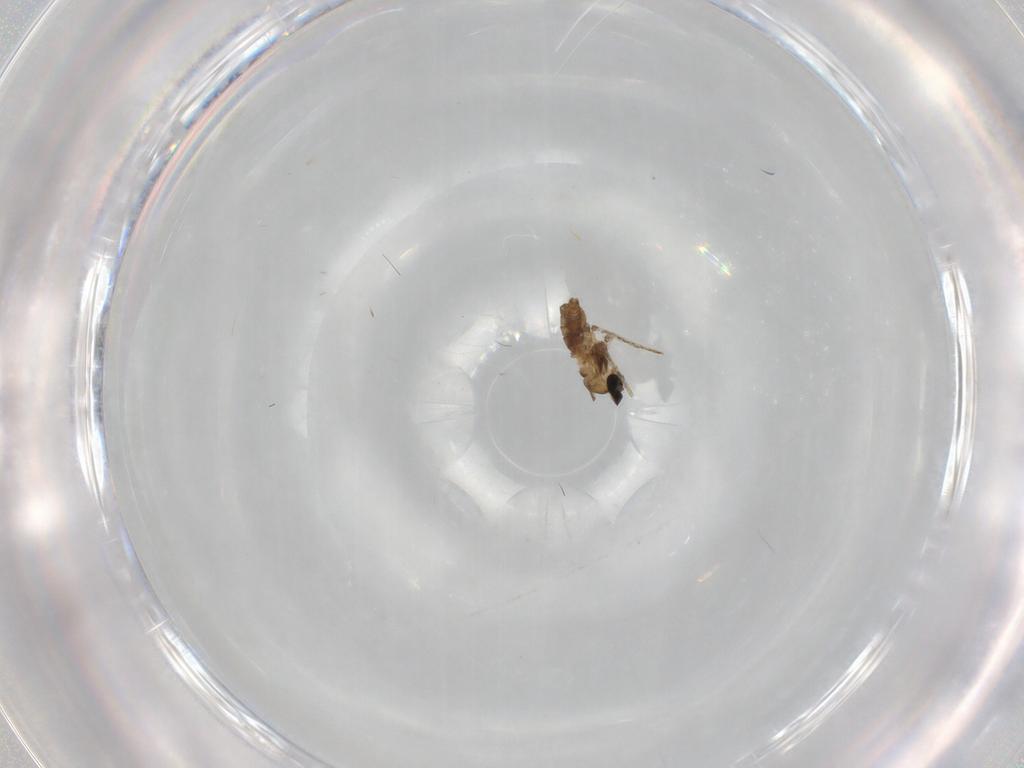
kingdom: Animalia
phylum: Arthropoda
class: Insecta
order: Diptera
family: Cecidomyiidae
